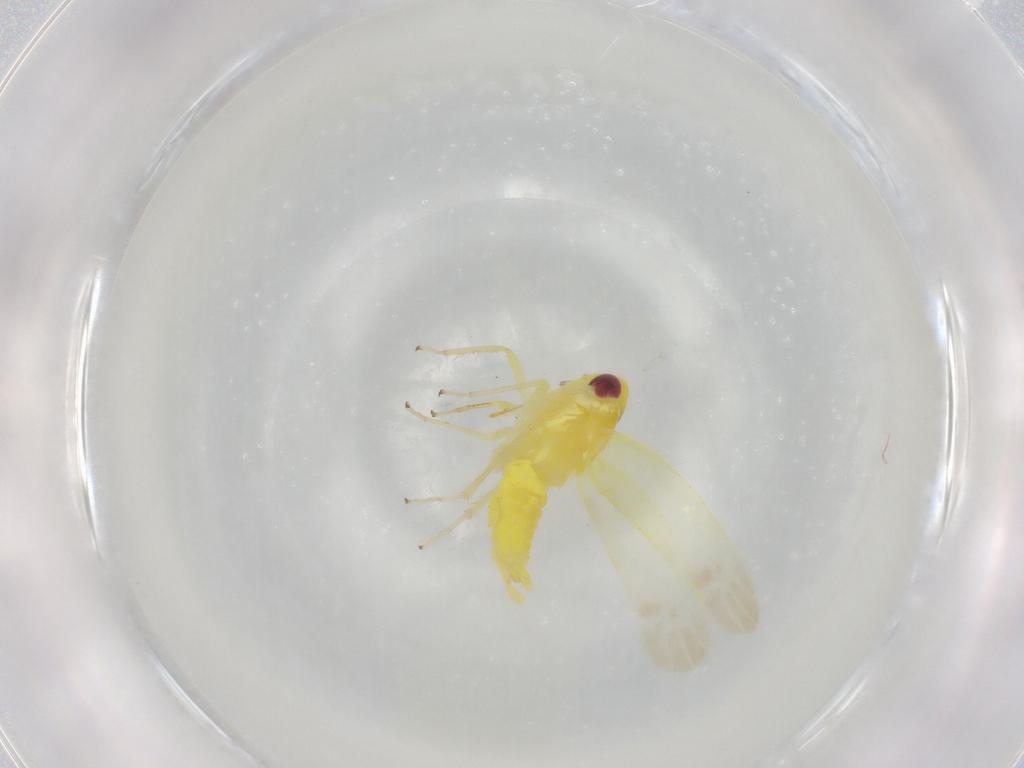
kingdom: Animalia
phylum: Arthropoda
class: Insecta
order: Hemiptera
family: Cicadellidae
